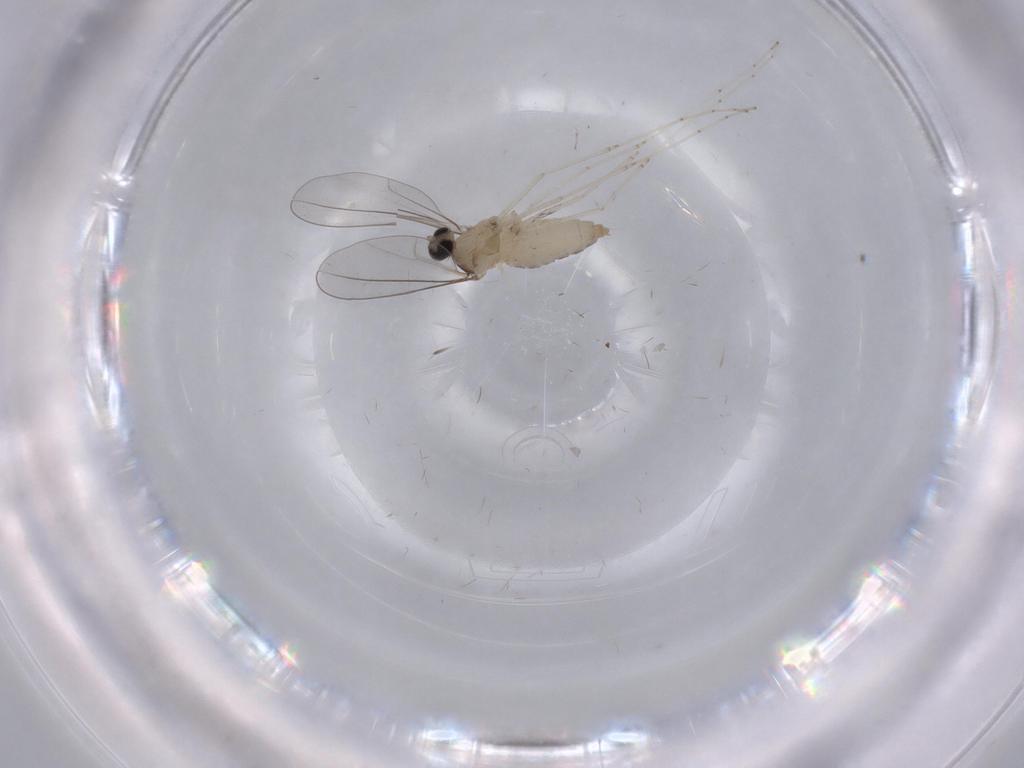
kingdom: Animalia
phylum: Arthropoda
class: Insecta
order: Diptera
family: Cecidomyiidae
